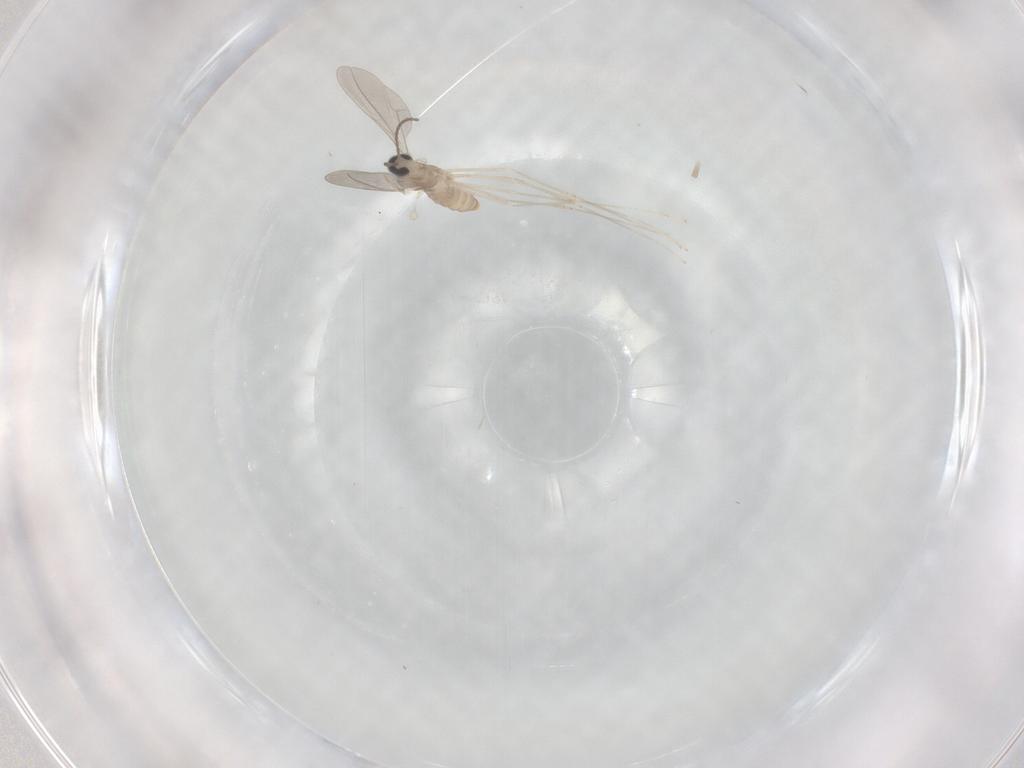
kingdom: Animalia
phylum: Arthropoda
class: Insecta
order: Diptera
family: Cecidomyiidae
